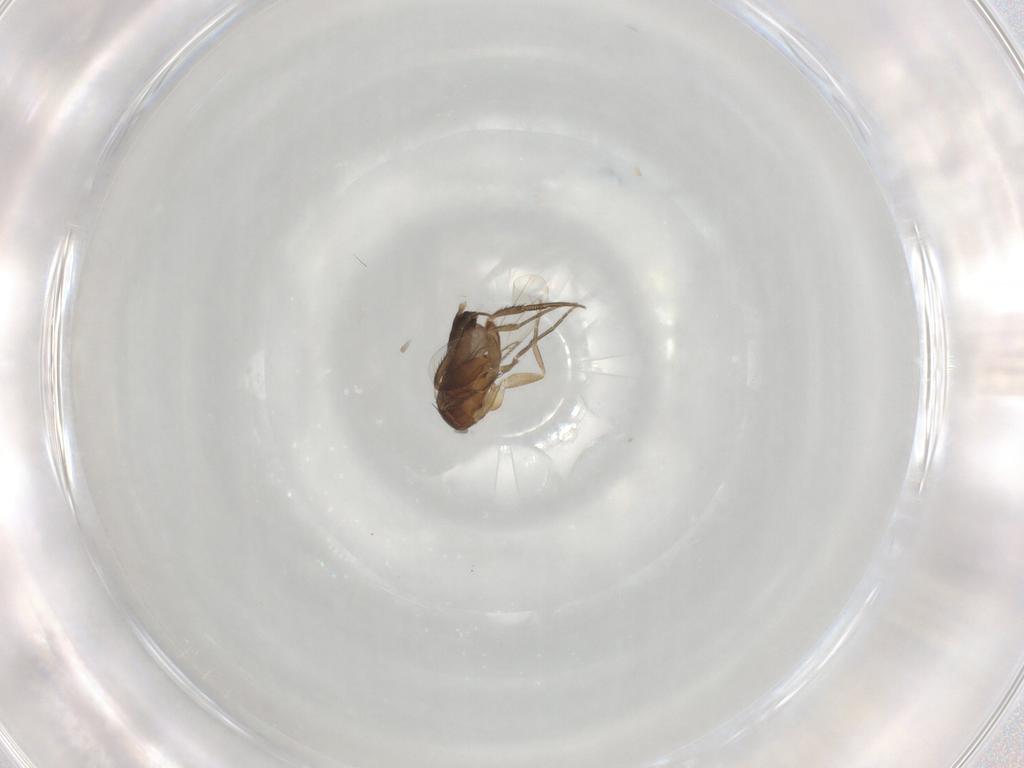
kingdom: Animalia
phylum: Arthropoda
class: Insecta
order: Diptera
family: Phoridae
